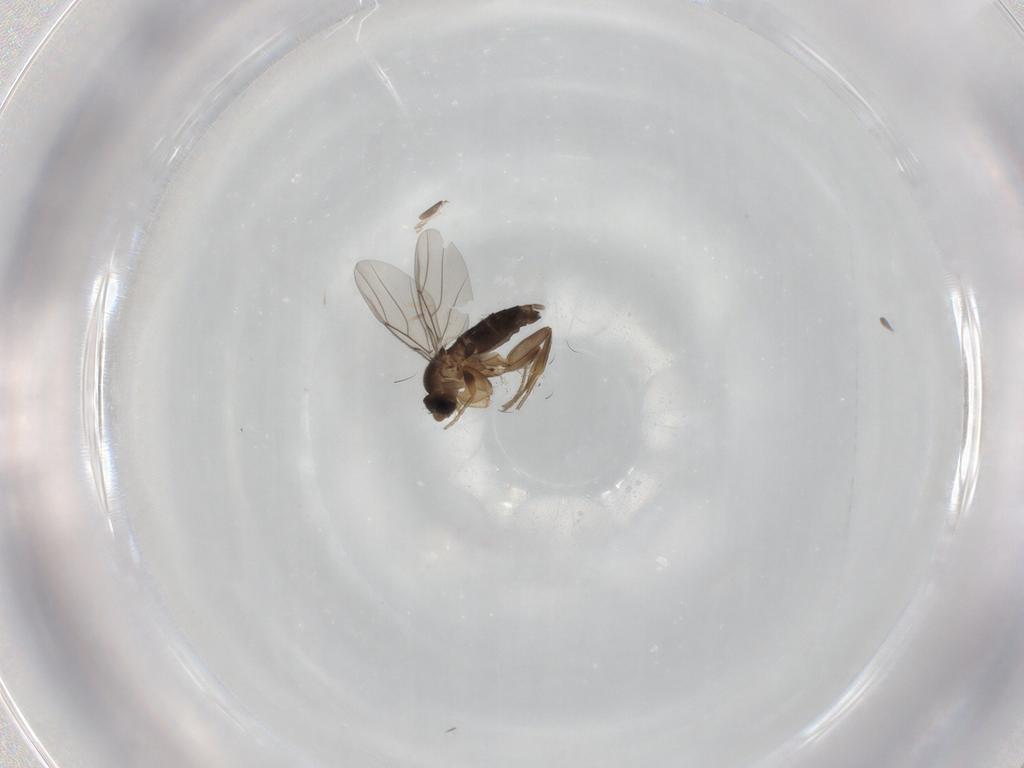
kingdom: Animalia
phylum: Arthropoda
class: Insecta
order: Diptera
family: Phoridae
